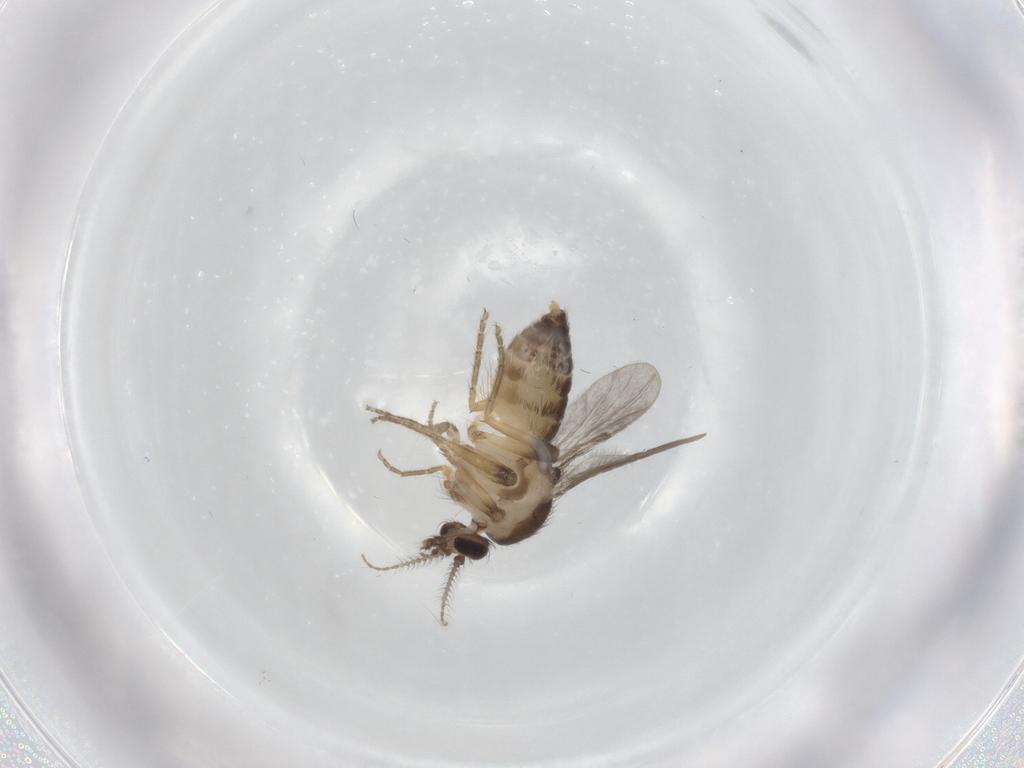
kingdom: Animalia
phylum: Arthropoda
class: Insecta
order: Diptera
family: Ceratopogonidae
